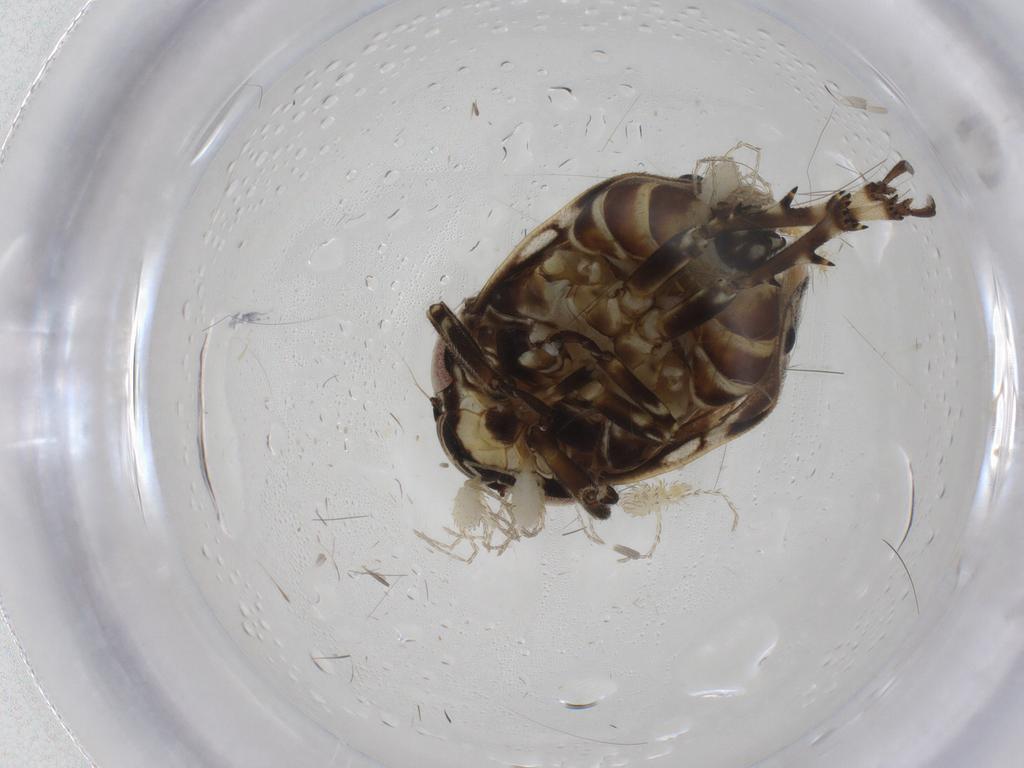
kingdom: Animalia
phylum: Arthropoda
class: Insecta
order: Hemiptera
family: Clastopteridae
